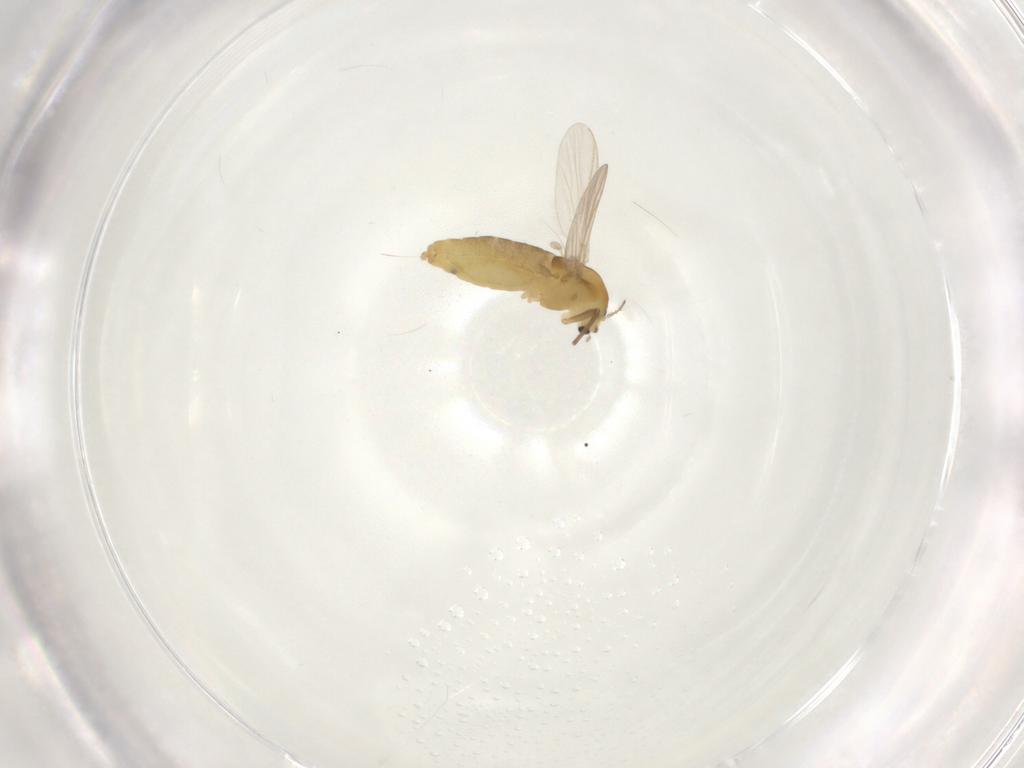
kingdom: Animalia
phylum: Arthropoda
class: Insecta
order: Diptera
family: Chironomidae
